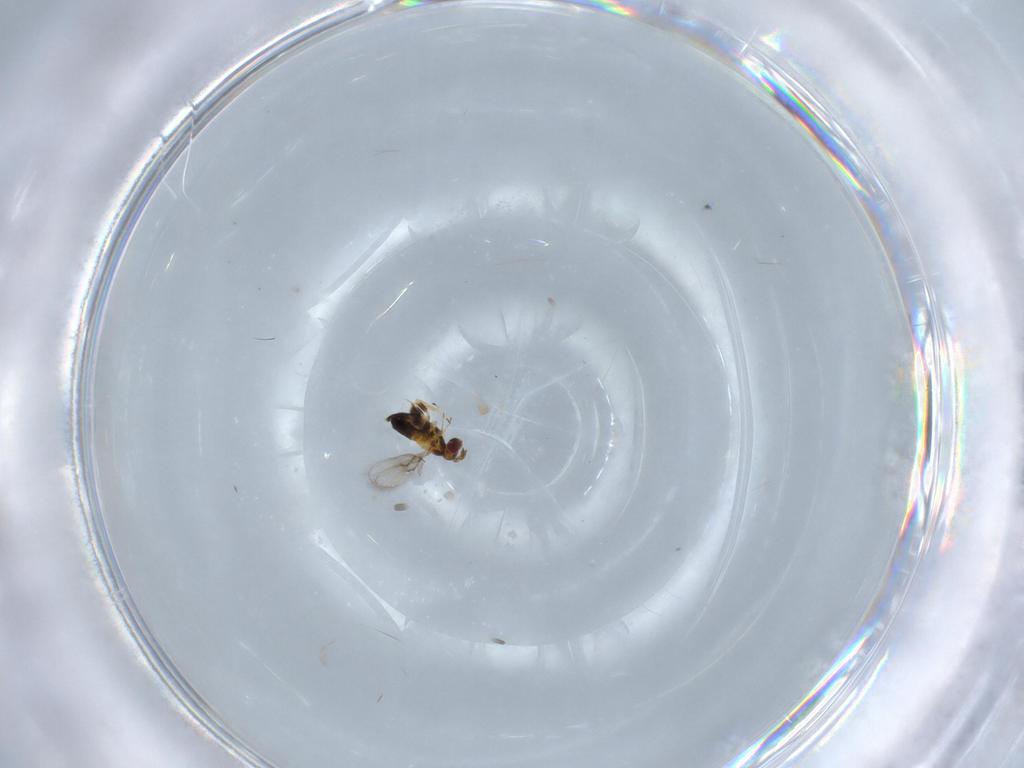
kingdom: Animalia
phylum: Arthropoda
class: Insecta
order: Hymenoptera
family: Trichogrammatidae
